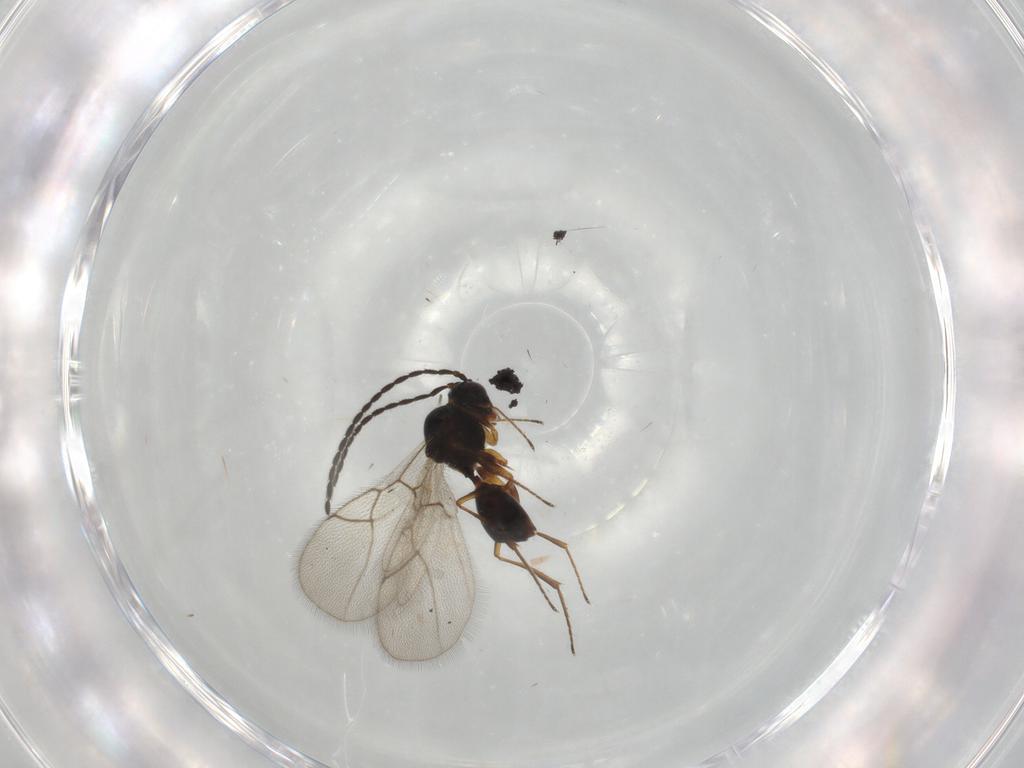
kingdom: Animalia
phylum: Arthropoda
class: Insecta
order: Hymenoptera
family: Figitidae
